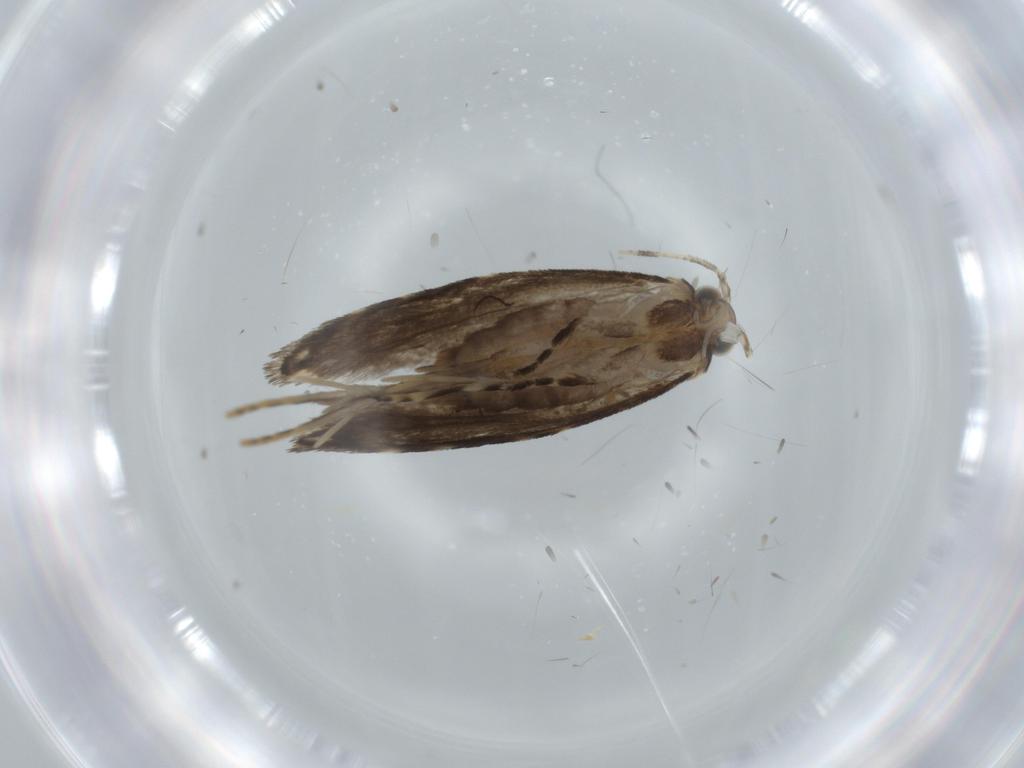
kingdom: Animalia
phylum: Arthropoda
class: Insecta
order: Lepidoptera
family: Tineidae
